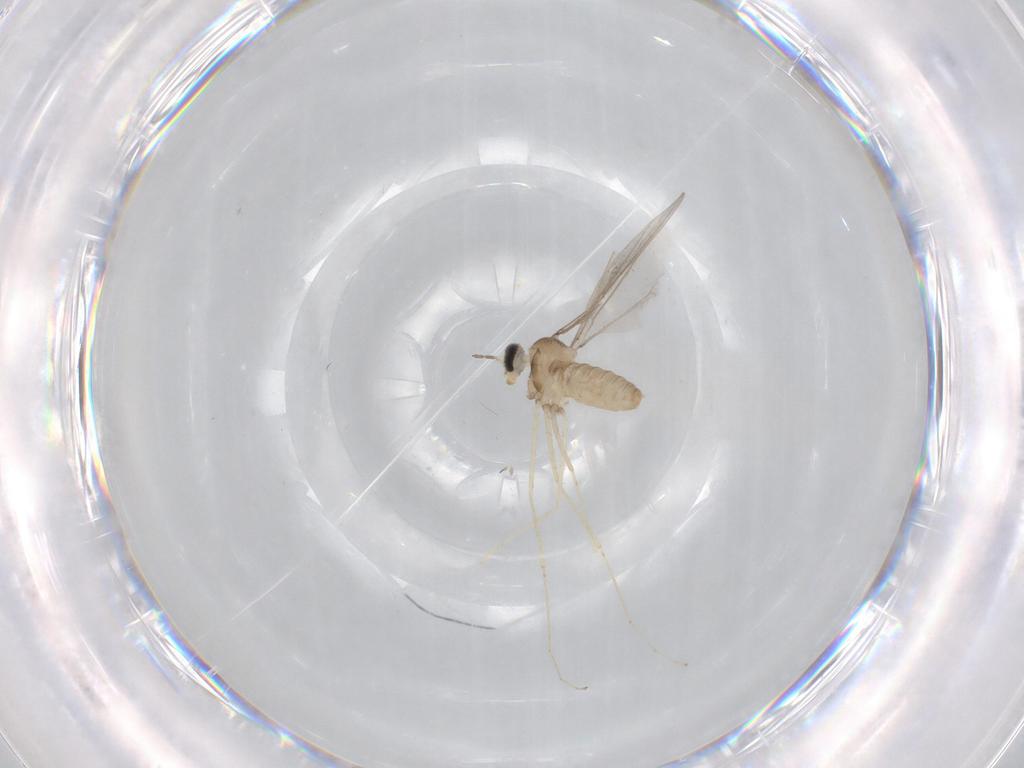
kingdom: Animalia
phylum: Arthropoda
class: Insecta
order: Diptera
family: Cecidomyiidae
